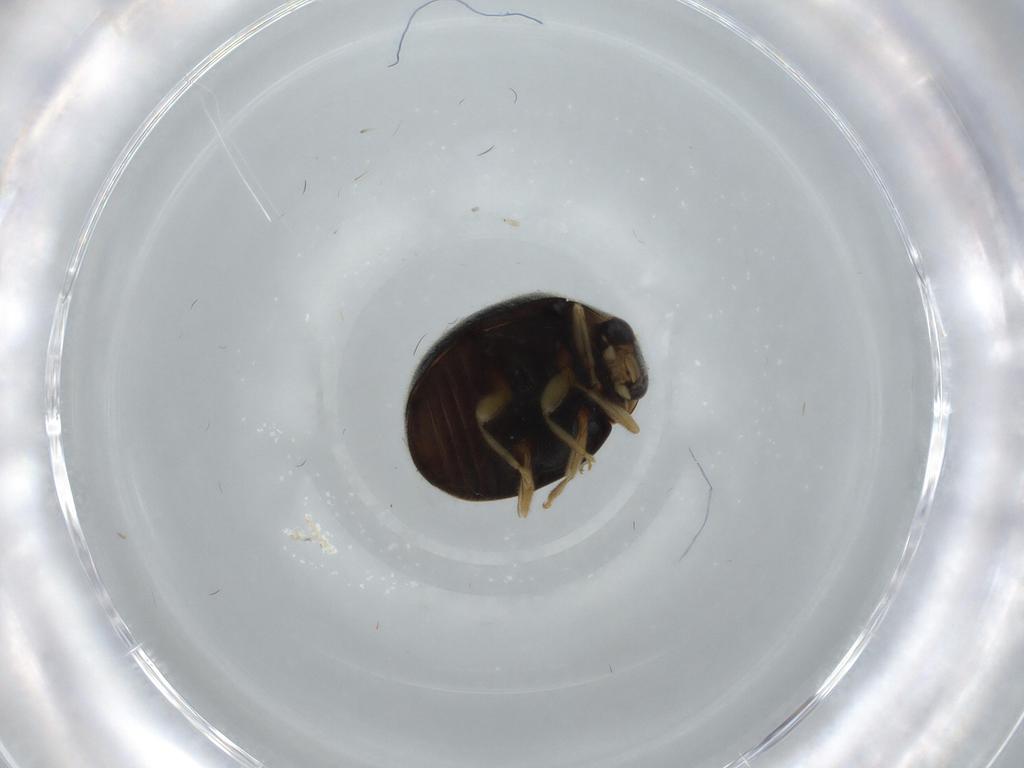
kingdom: Animalia
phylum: Arthropoda
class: Insecta
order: Coleoptera
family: Coccinellidae
